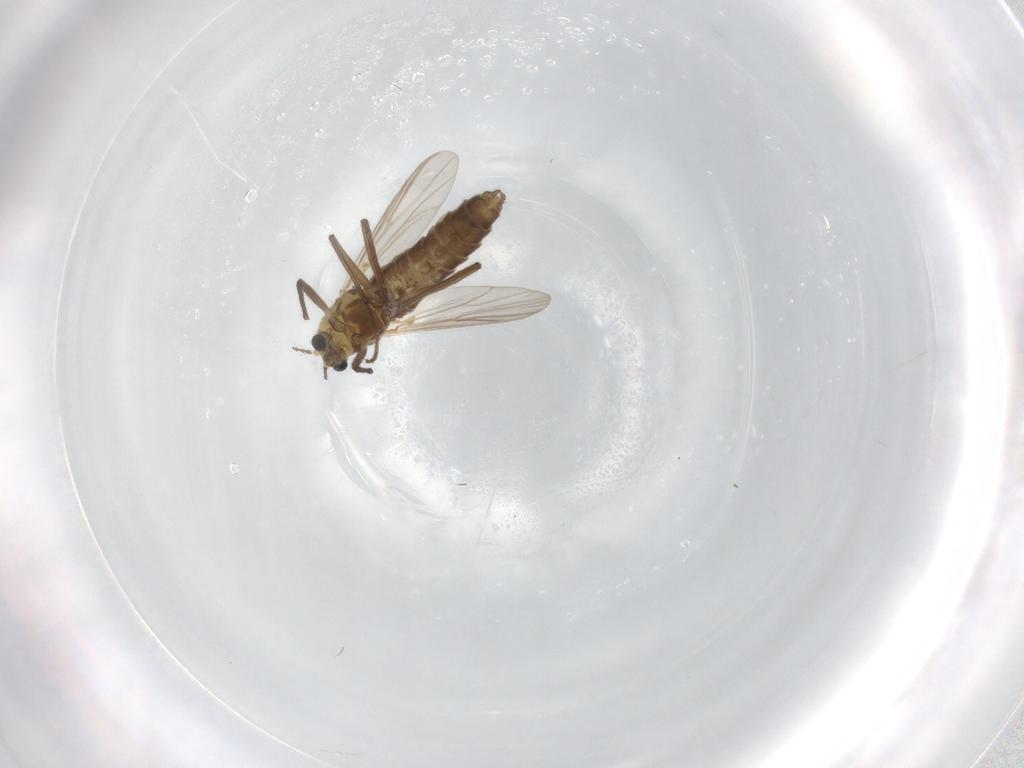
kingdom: Animalia
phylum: Arthropoda
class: Insecta
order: Diptera
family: Chironomidae
